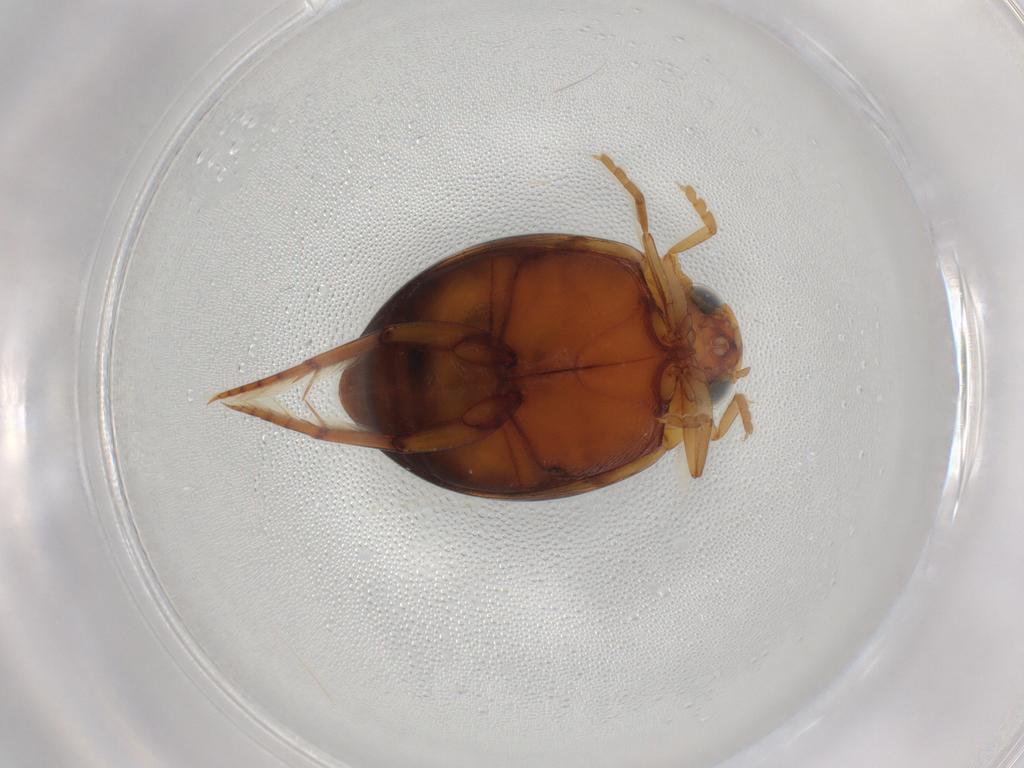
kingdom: Animalia
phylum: Arthropoda
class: Insecta
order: Coleoptera
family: Dytiscidae
